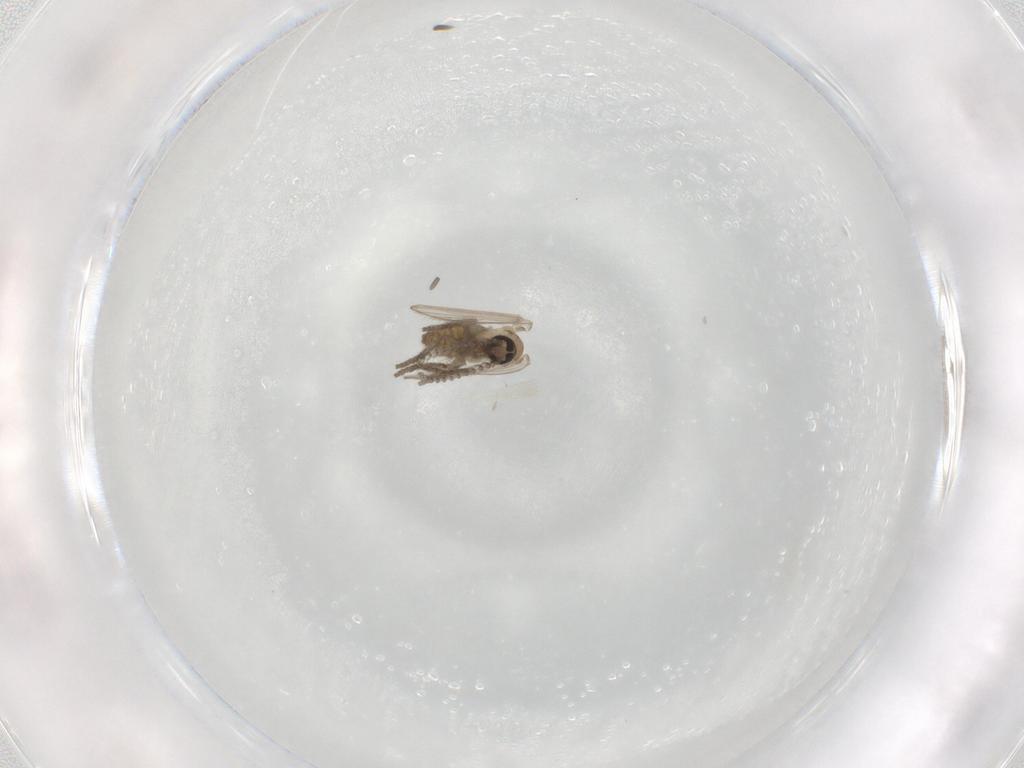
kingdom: Animalia
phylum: Arthropoda
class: Insecta
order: Diptera
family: Psychodidae
